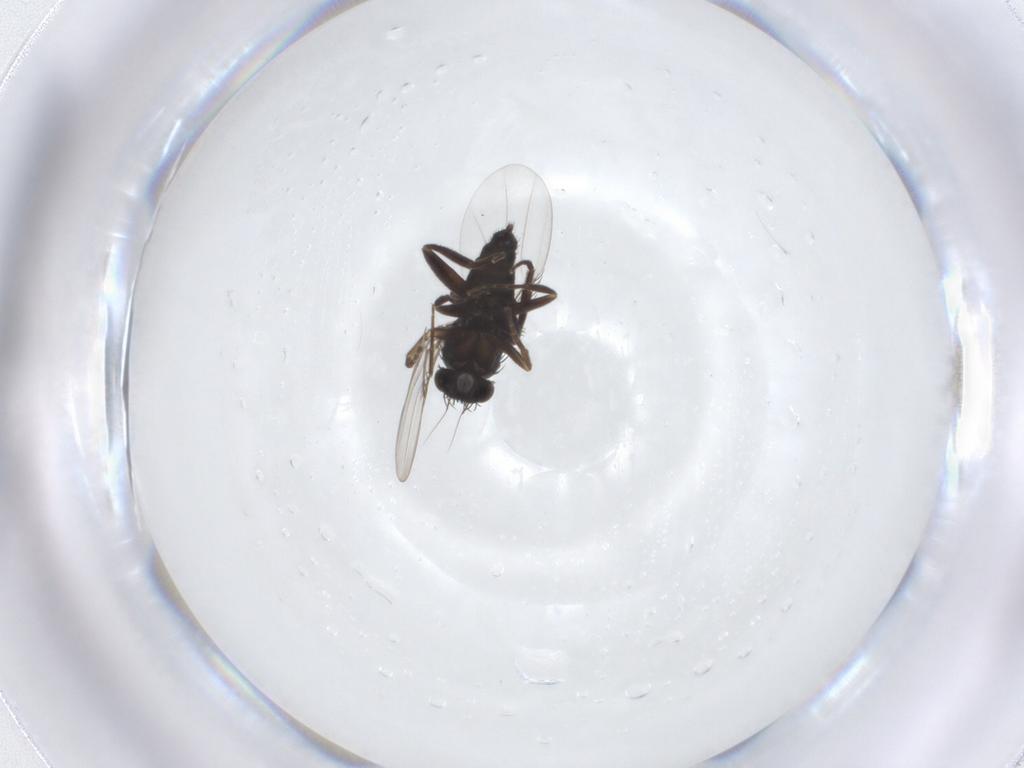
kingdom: Animalia
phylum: Arthropoda
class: Insecta
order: Diptera
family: Phoridae
